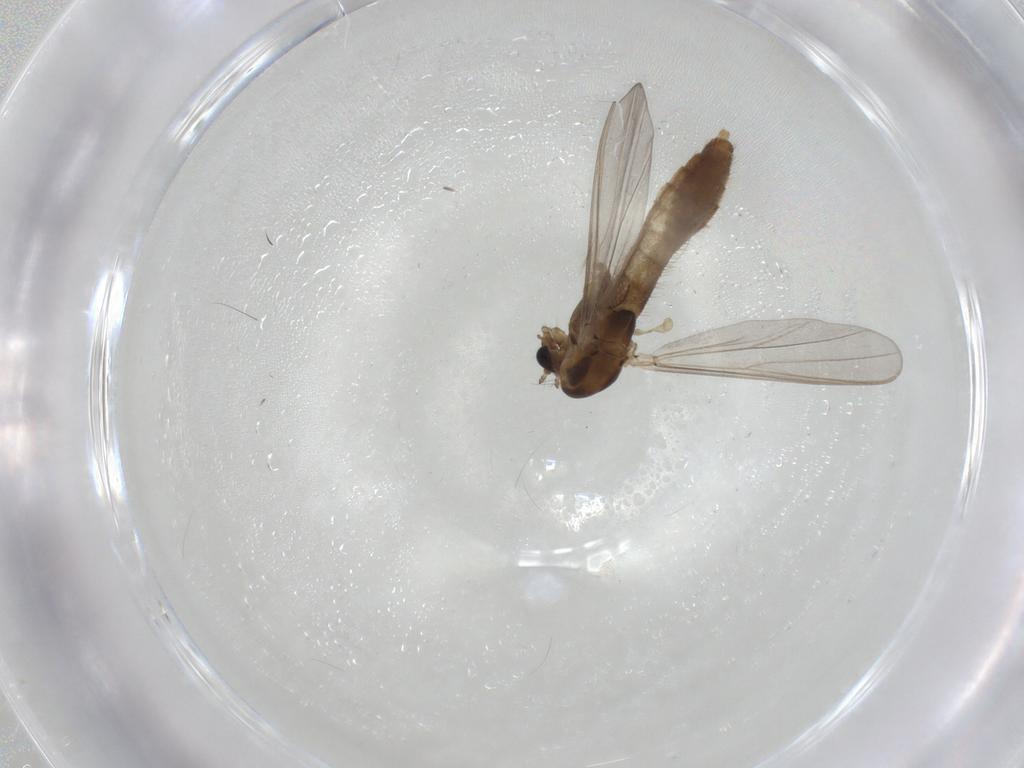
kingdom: Animalia
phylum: Arthropoda
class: Insecta
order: Diptera
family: Chironomidae
